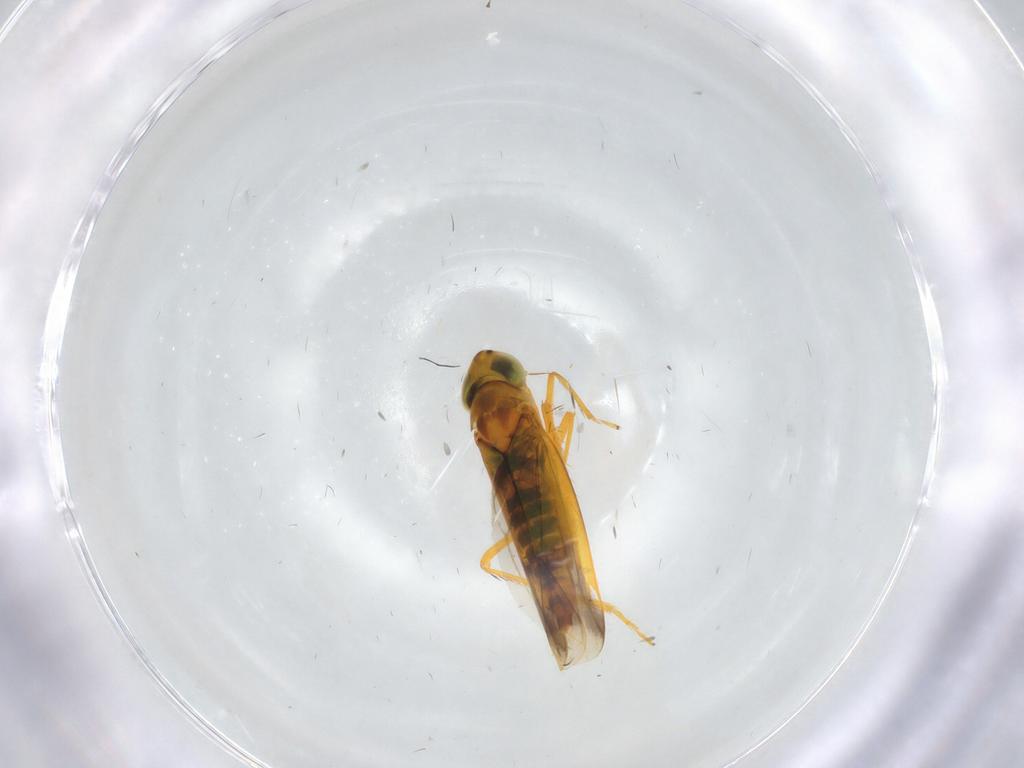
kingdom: Animalia
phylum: Arthropoda
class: Insecta
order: Hemiptera
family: Cicadellidae
